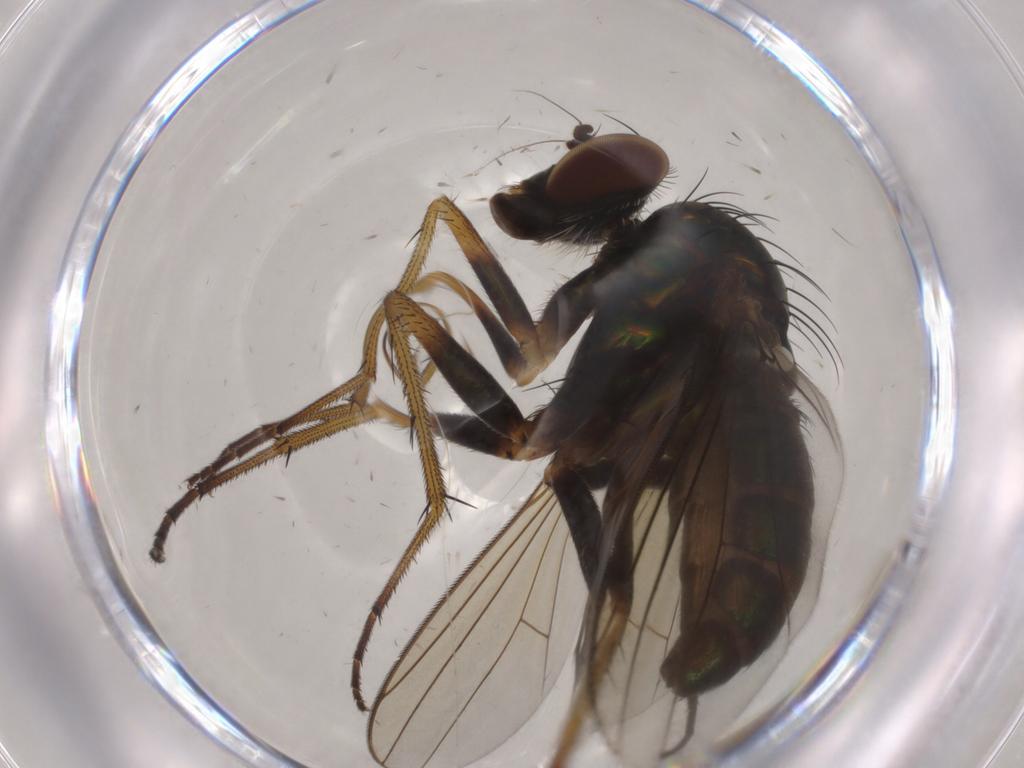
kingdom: Animalia
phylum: Arthropoda
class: Insecta
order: Diptera
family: Dolichopodidae
